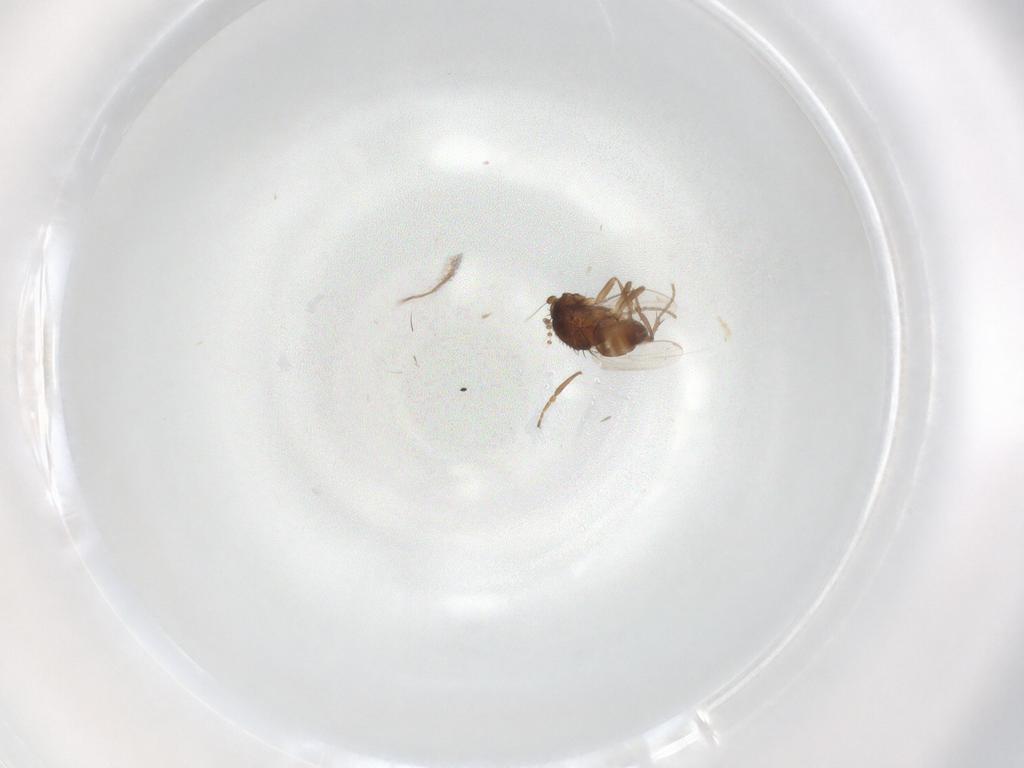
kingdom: Animalia
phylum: Arthropoda
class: Insecta
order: Diptera
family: Sphaeroceridae
